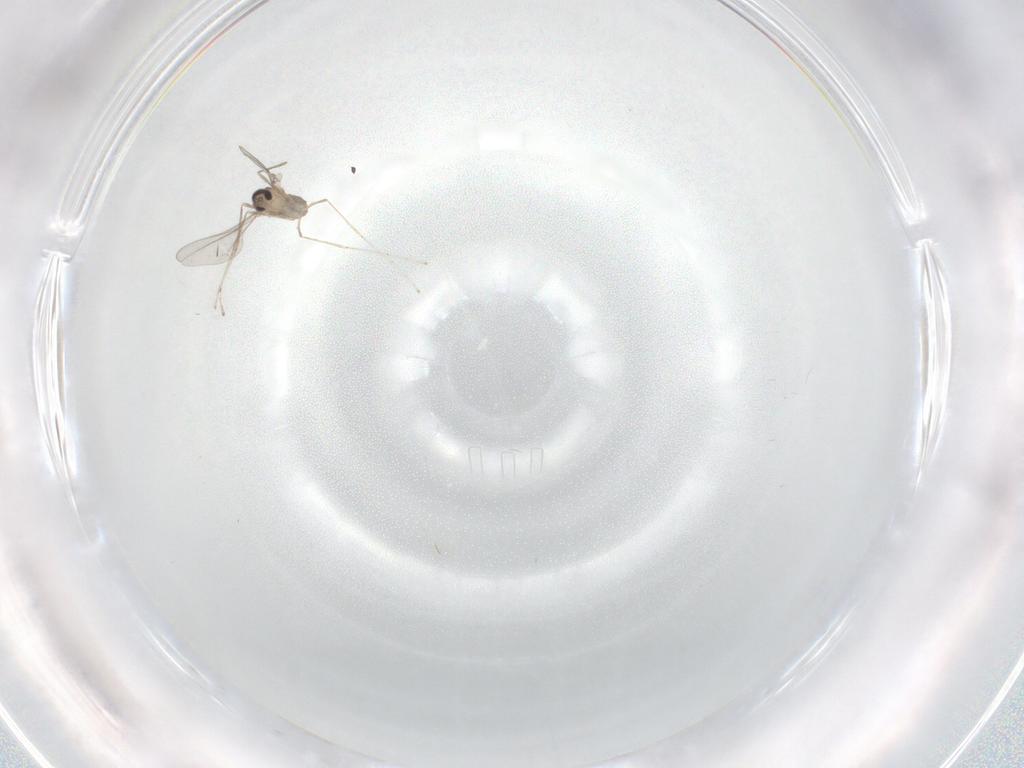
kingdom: Animalia
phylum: Arthropoda
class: Insecta
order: Diptera
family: Cecidomyiidae
